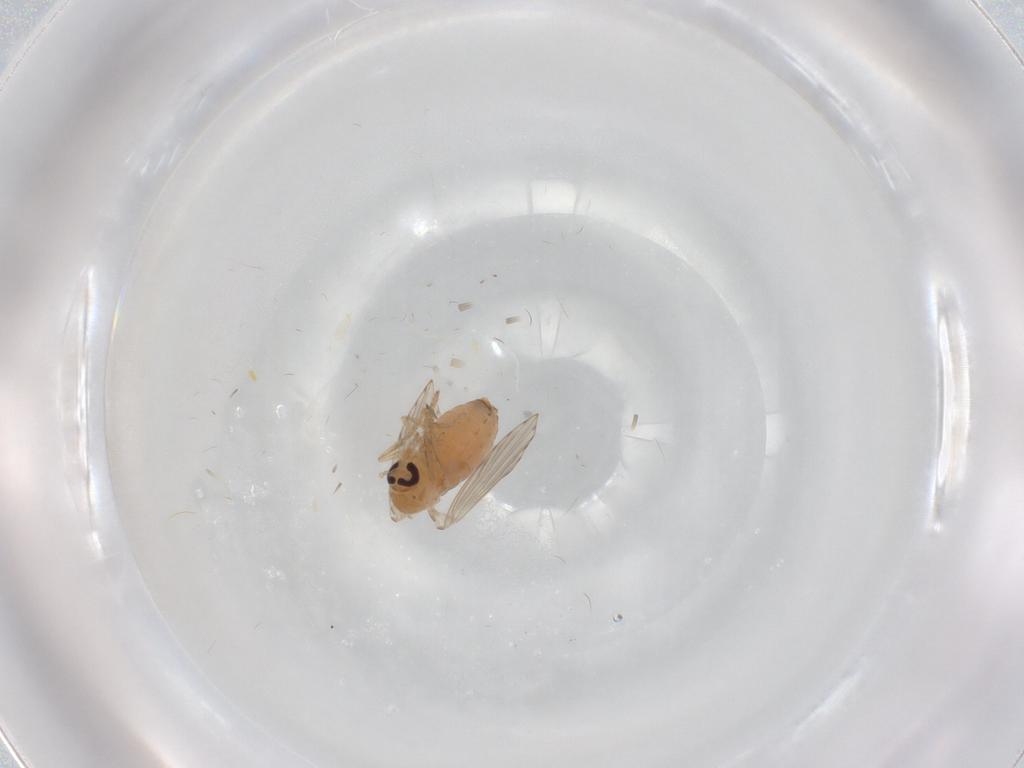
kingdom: Animalia
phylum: Arthropoda
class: Insecta
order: Diptera
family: Psychodidae
